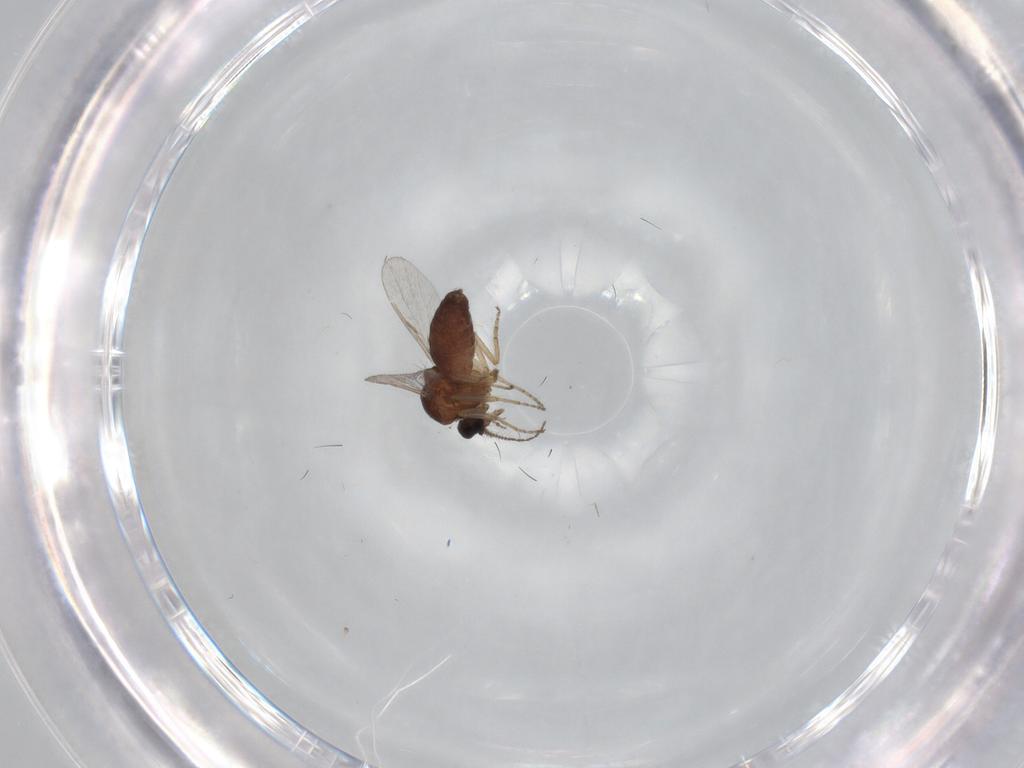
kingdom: Animalia
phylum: Arthropoda
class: Insecta
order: Diptera
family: Ceratopogonidae
